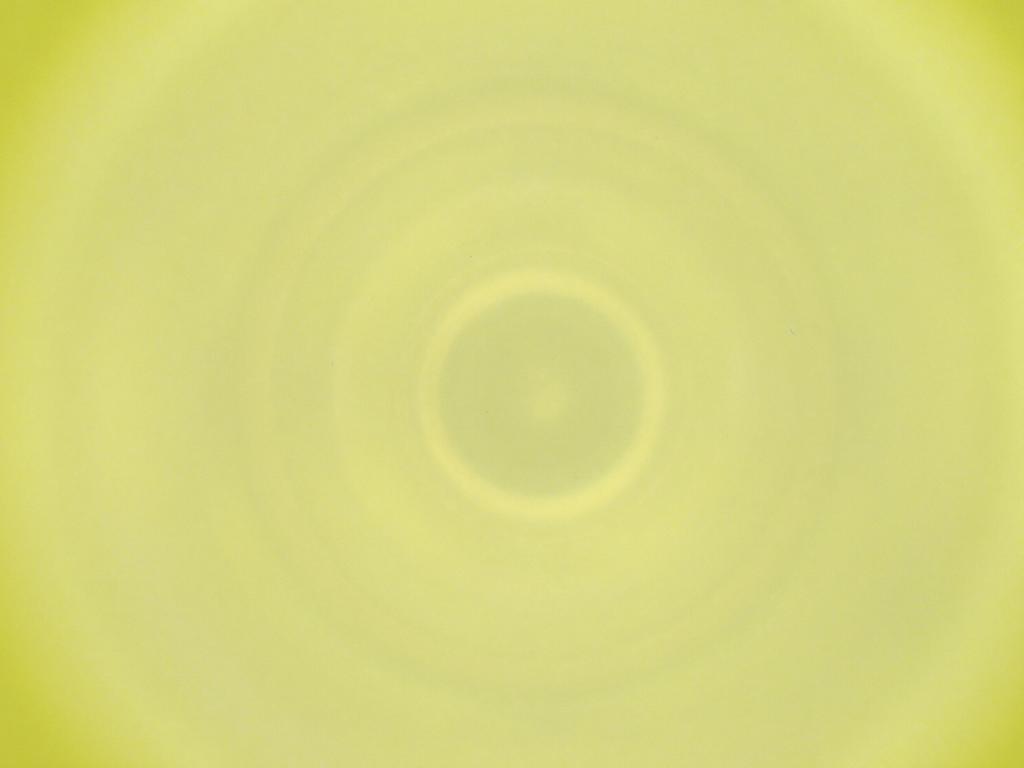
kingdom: Animalia
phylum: Arthropoda
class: Insecta
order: Diptera
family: Cecidomyiidae
